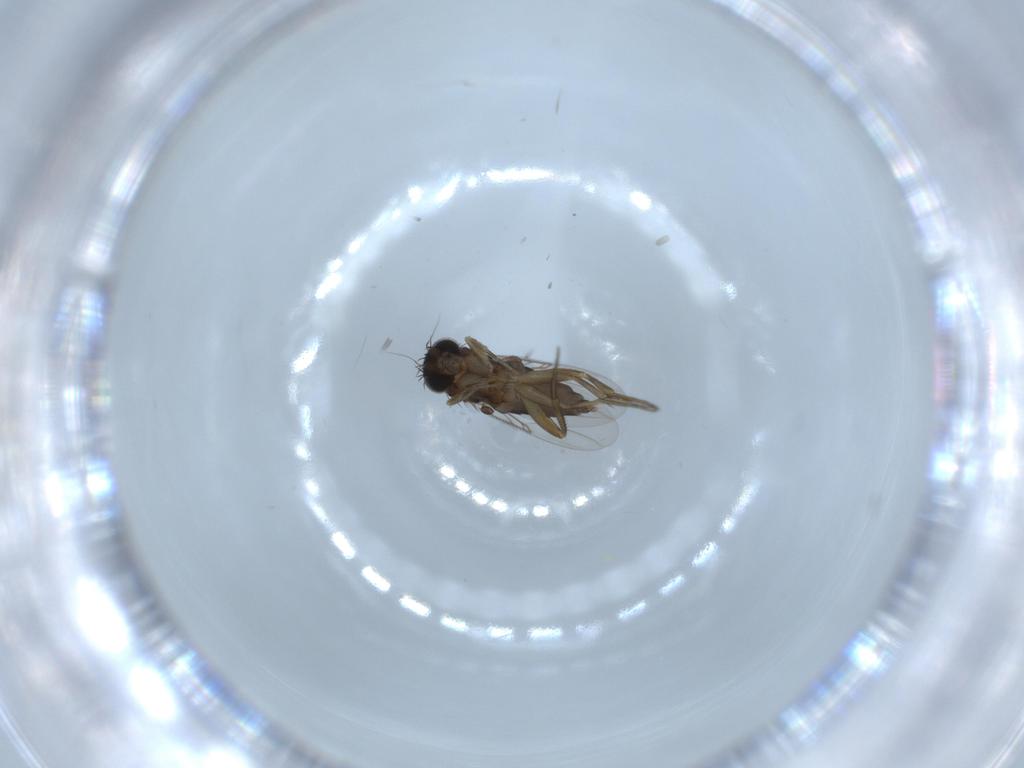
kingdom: Animalia
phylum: Arthropoda
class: Insecta
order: Diptera
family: Phoridae
